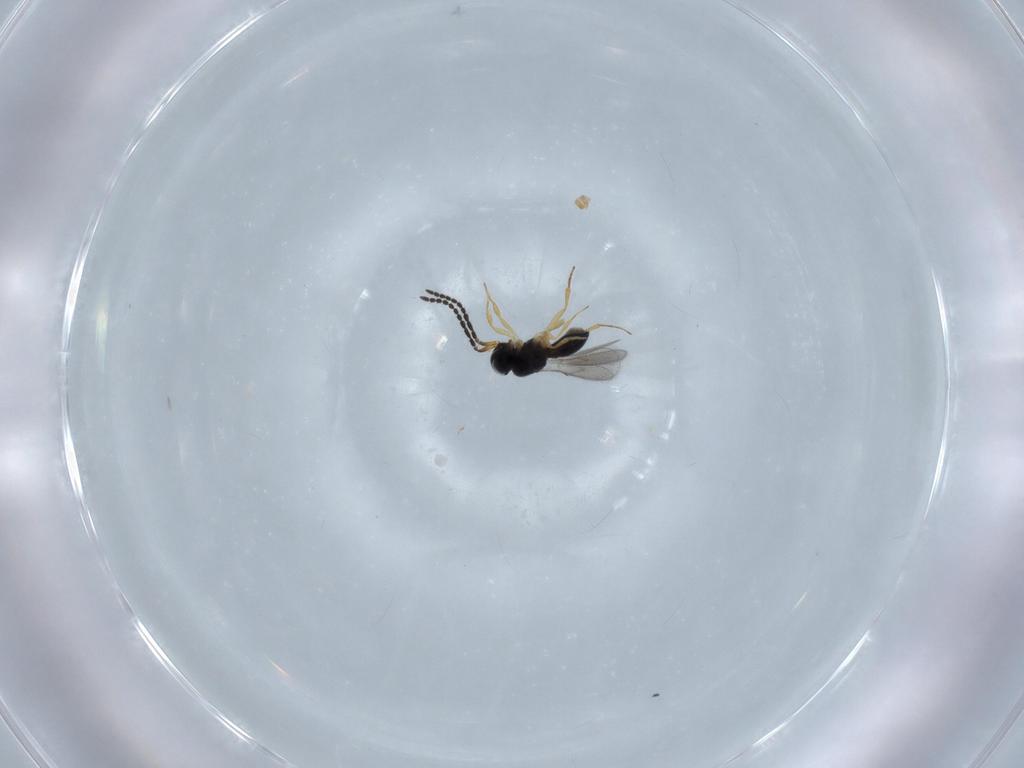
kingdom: Animalia
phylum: Arthropoda
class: Insecta
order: Hymenoptera
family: Scelionidae
